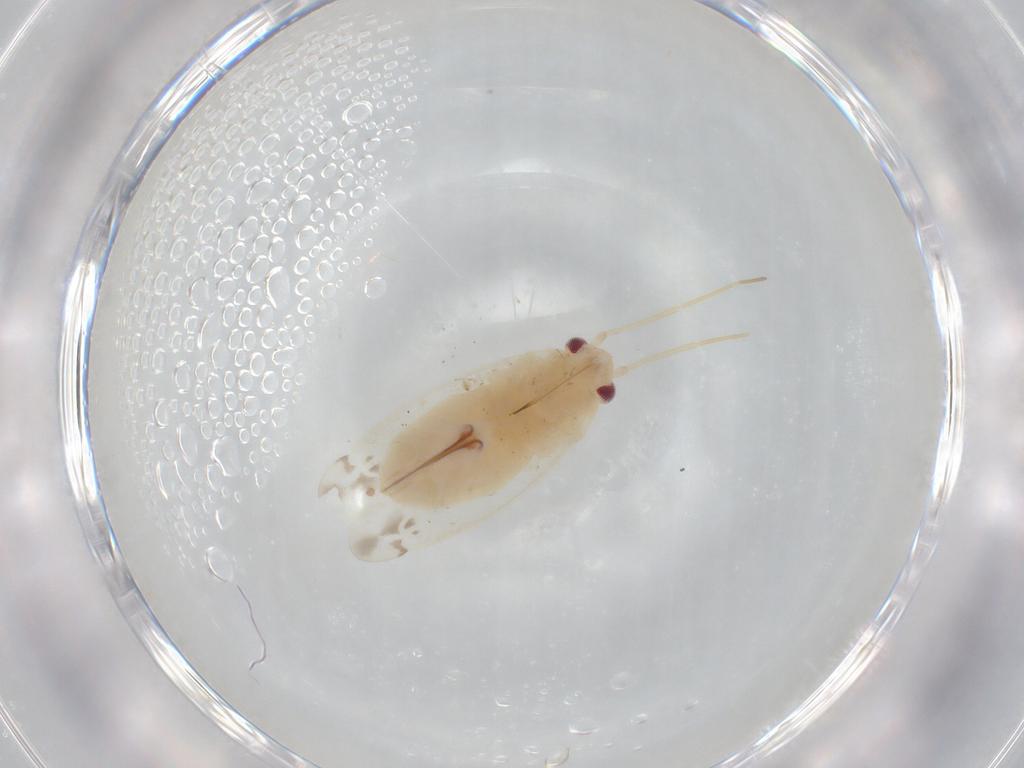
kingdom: Animalia
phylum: Arthropoda
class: Insecta
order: Hemiptera
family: Miridae
